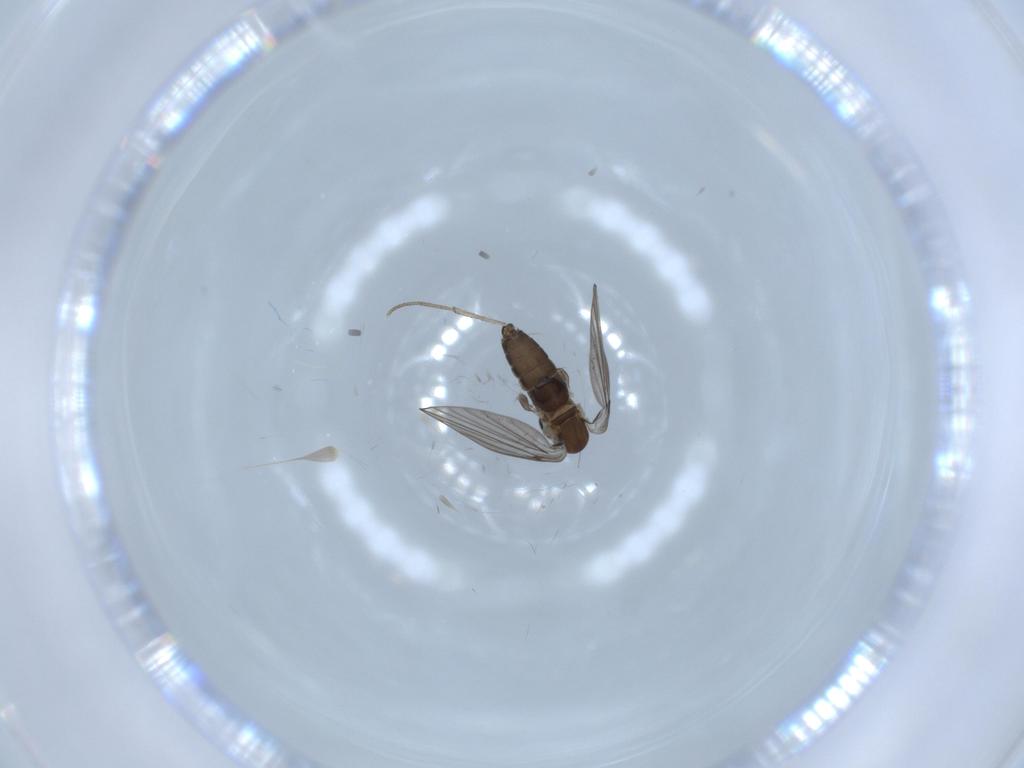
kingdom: Animalia
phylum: Arthropoda
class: Insecta
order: Diptera
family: Psychodidae
